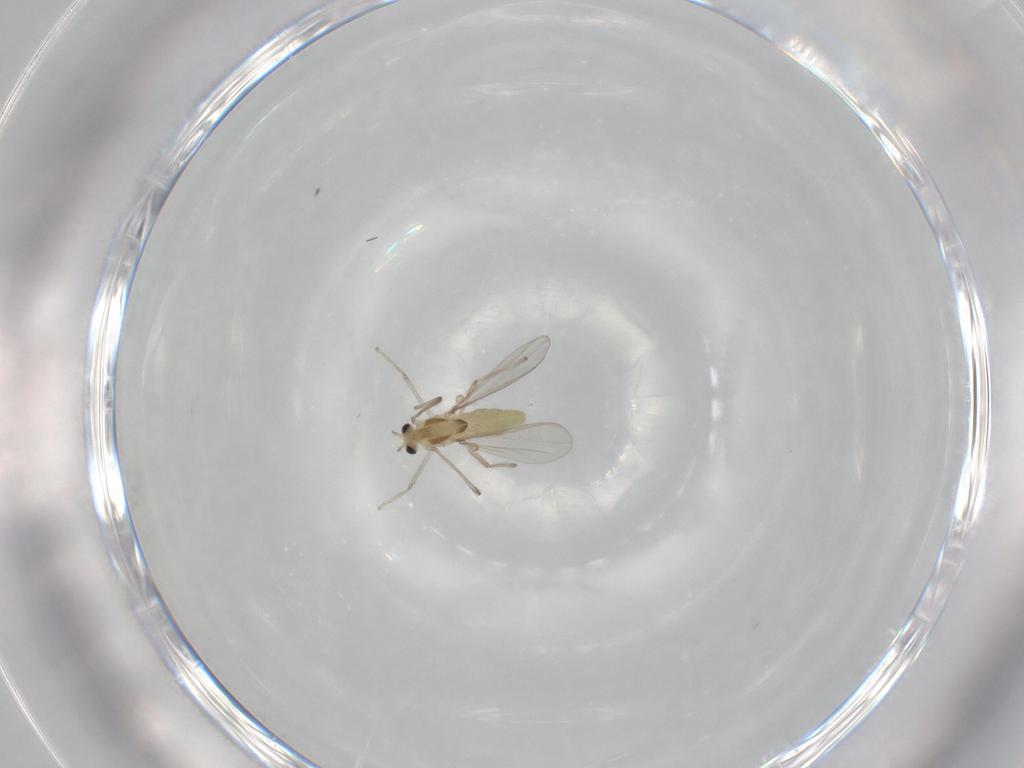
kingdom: Animalia
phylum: Arthropoda
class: Insecta
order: Diptera
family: Chironomidae
